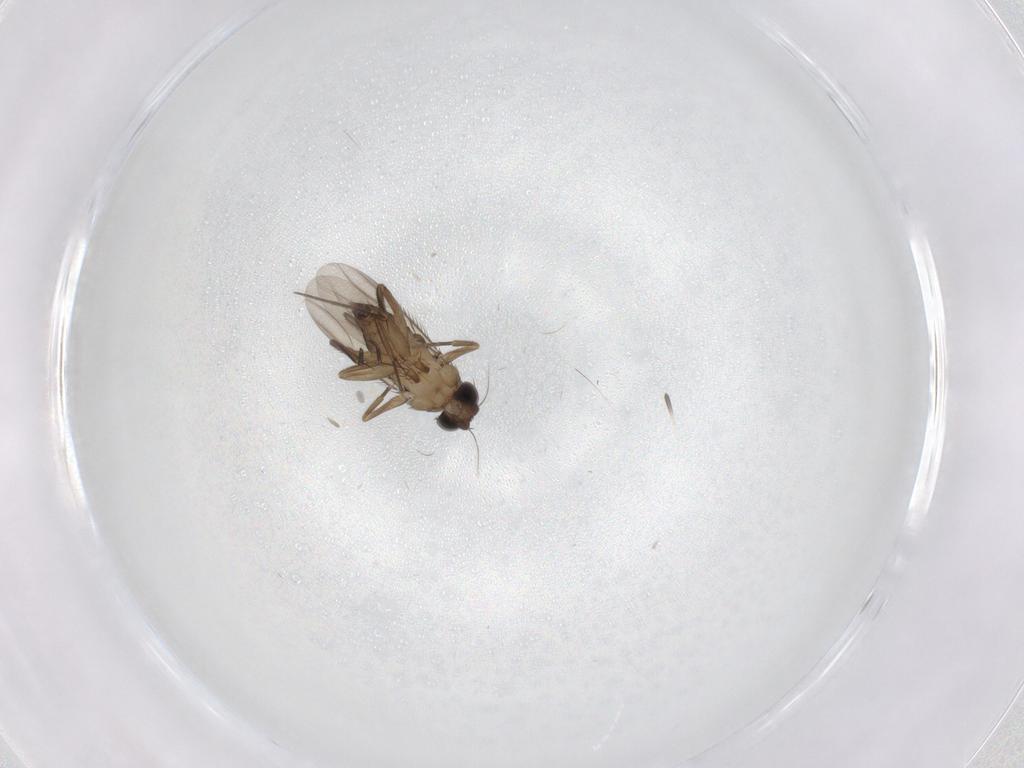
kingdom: Animalia
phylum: Arthropoda
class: Insecta
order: Diptera
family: Phoridae
